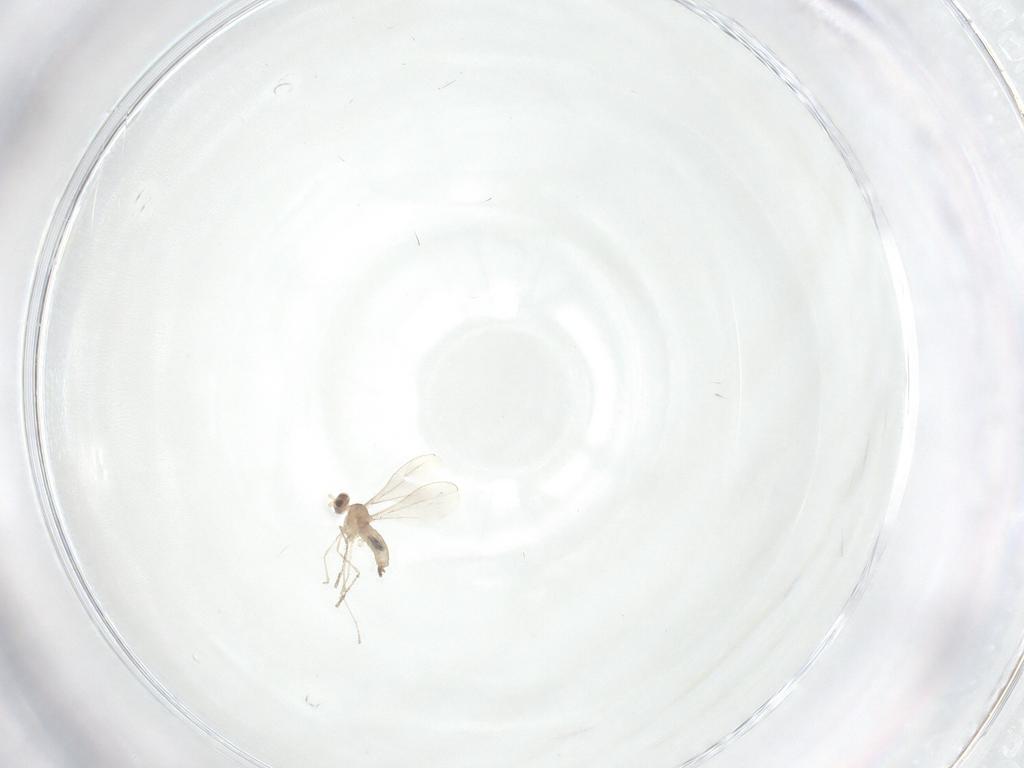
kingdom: Animalia
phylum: Arthropoda
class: Insecta
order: Diptera
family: Cecidomyiidae
